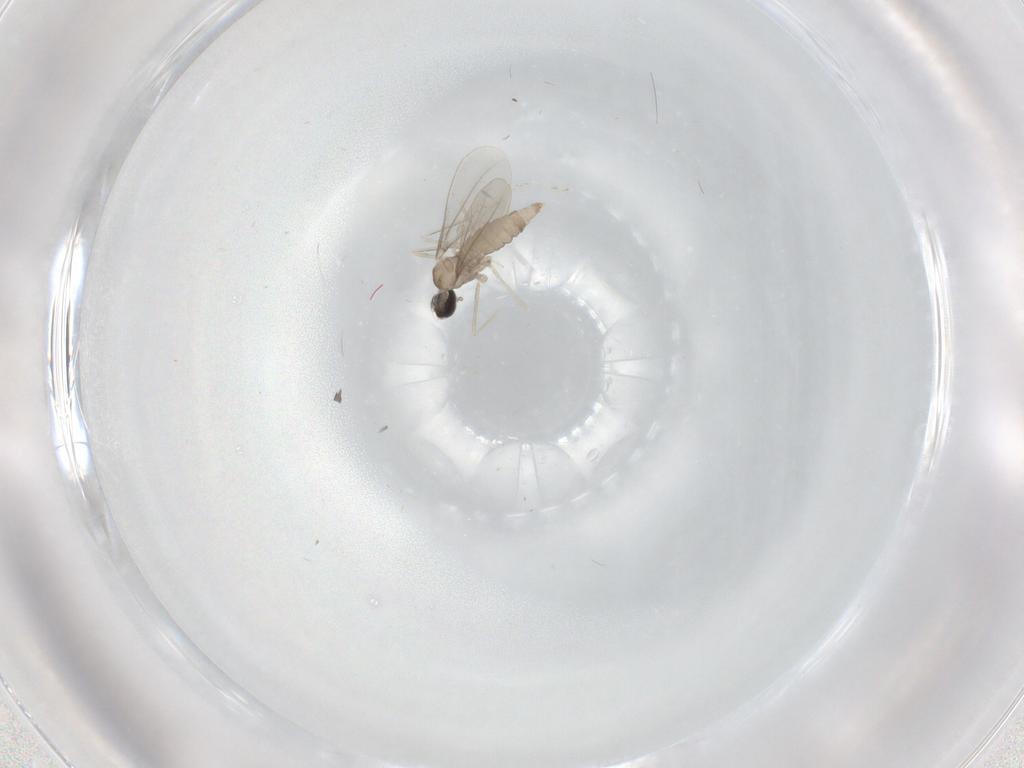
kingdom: Animalia
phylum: Arthropoda
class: Insecta
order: Diptera
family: Cecidomyiidae
